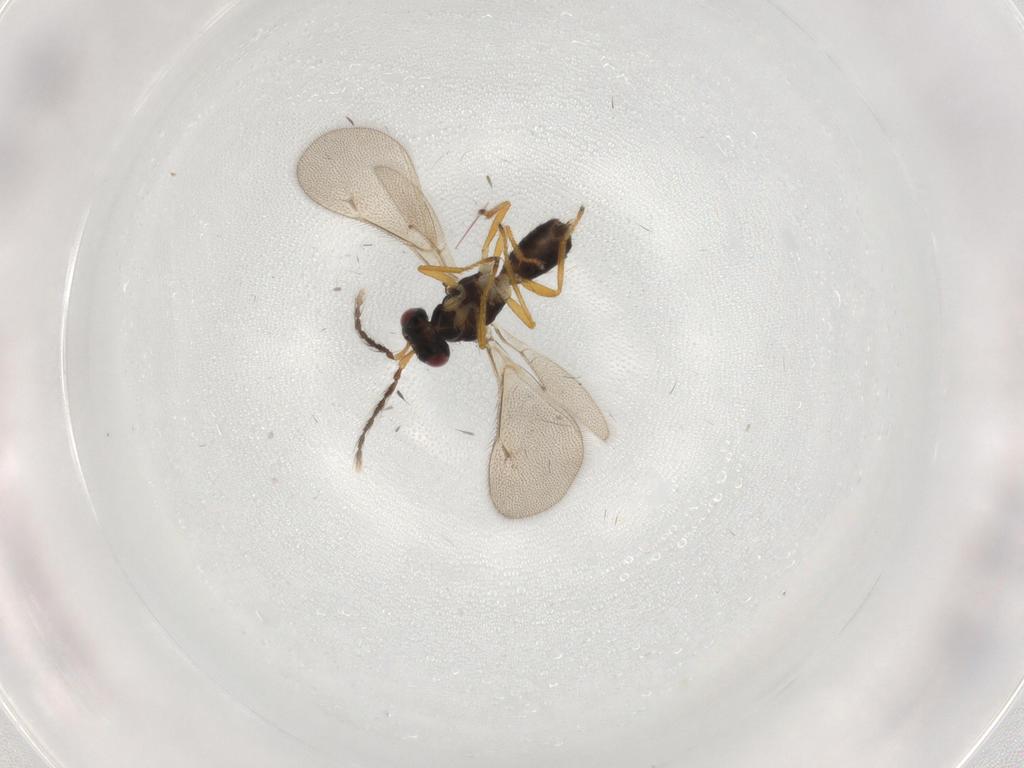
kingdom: Animalia
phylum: Arthropoda
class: Insecta
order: Hymenoptera
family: Eulophidae
